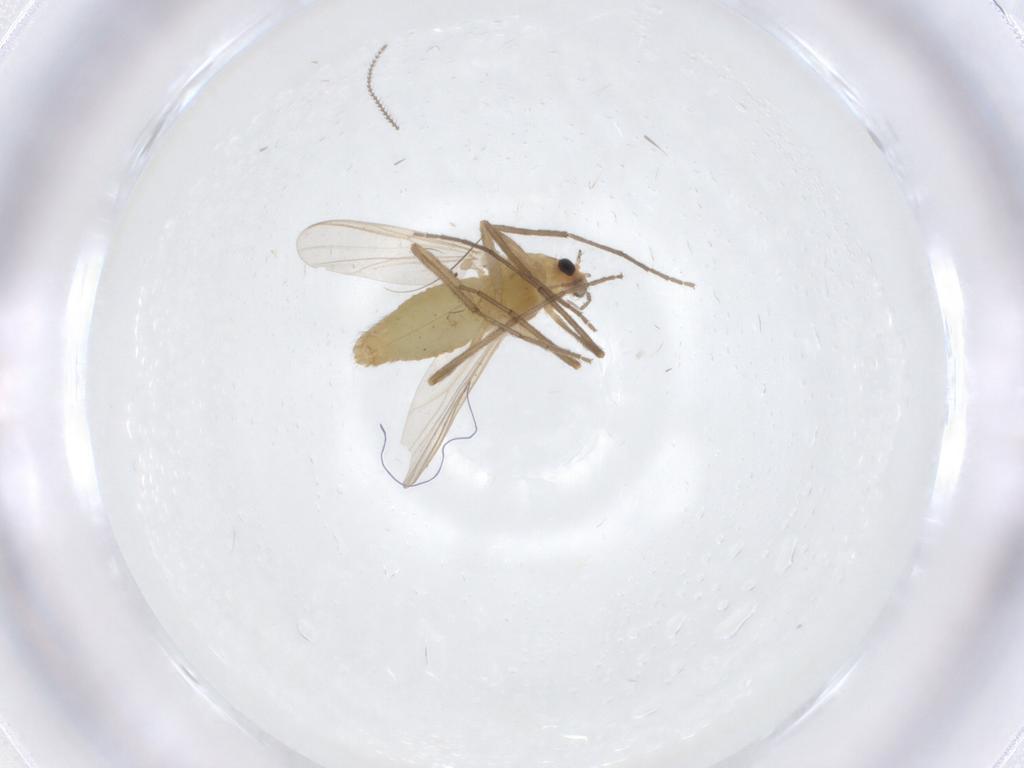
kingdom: Animalia
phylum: Arthropoda
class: Insecta
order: Diptera
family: Chironomidae
